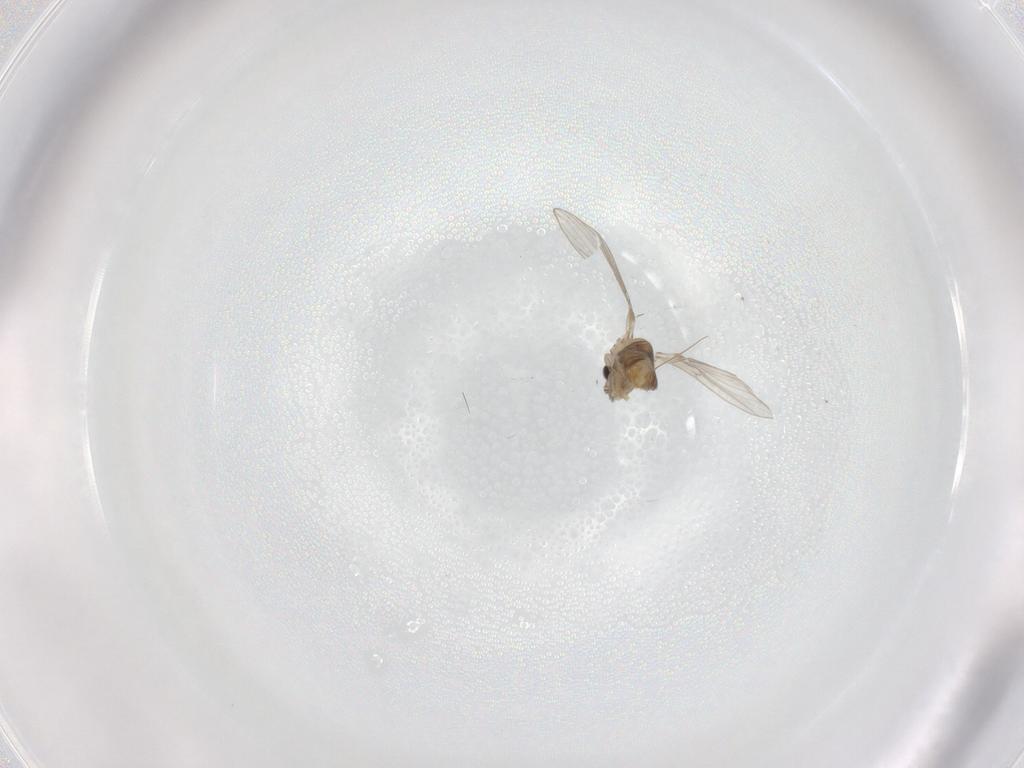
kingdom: Animalia
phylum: Arthropoda
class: Insecta
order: Diptera
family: Psychodidae
